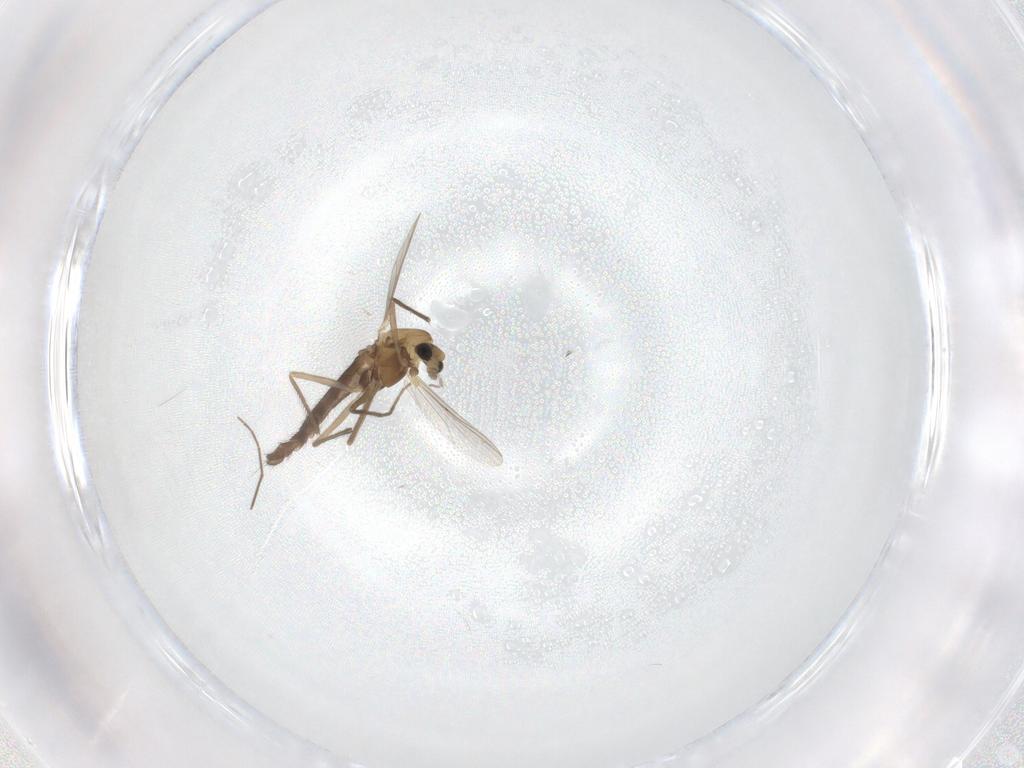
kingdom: Animalia
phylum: Arthropoda
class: Insecta
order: Diptera
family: Chironomidae
